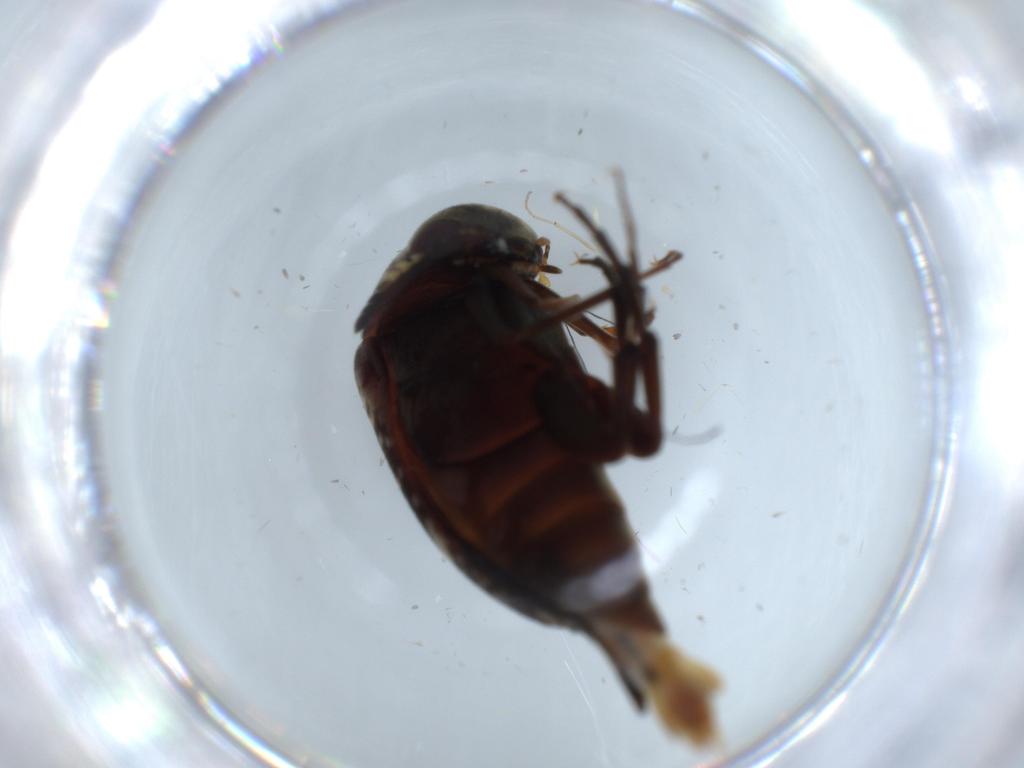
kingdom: Animalia
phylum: Arthropoda
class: Insecta
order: Coleoptera
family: Chrysomelidae
